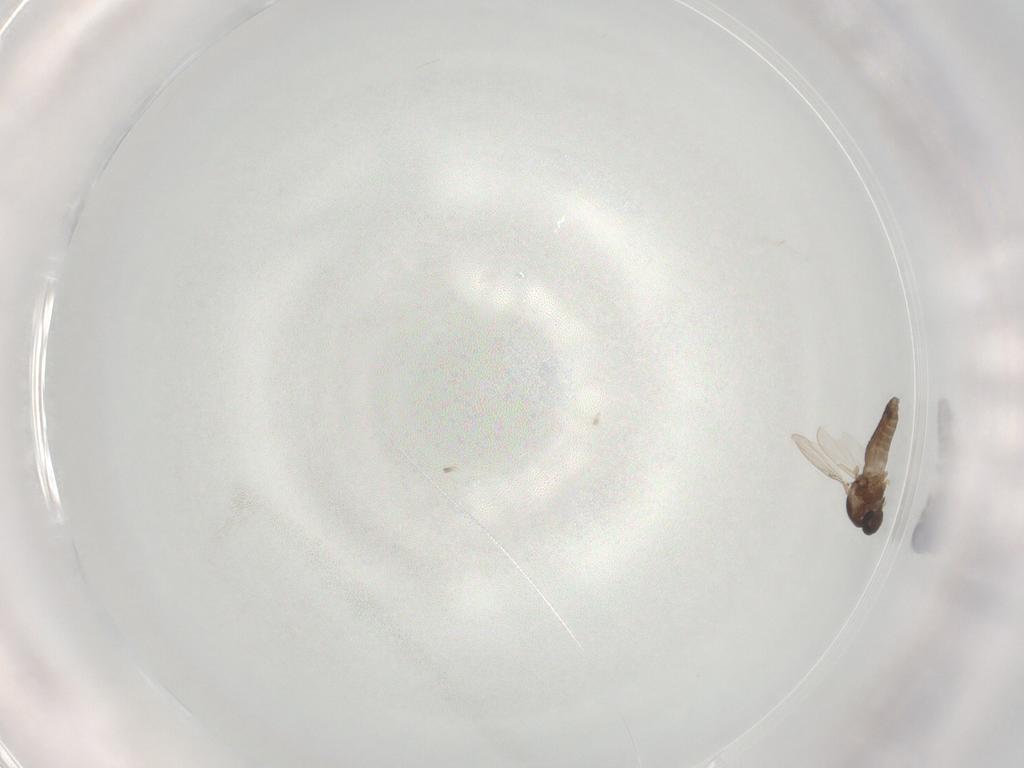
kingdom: Animalia
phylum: Arthropoda
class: Insecta
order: Diptera
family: Ceratopogonidae
